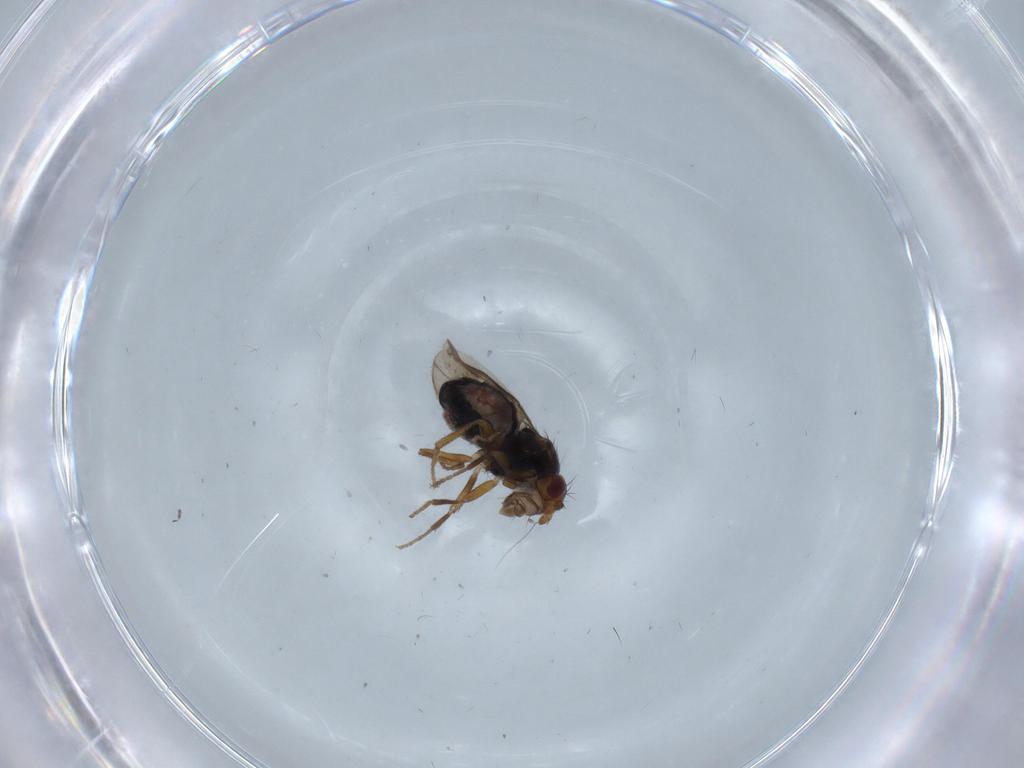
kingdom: Animalia
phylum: Arthropoda
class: Insecta
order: Diptera
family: Sphaeroceridae
